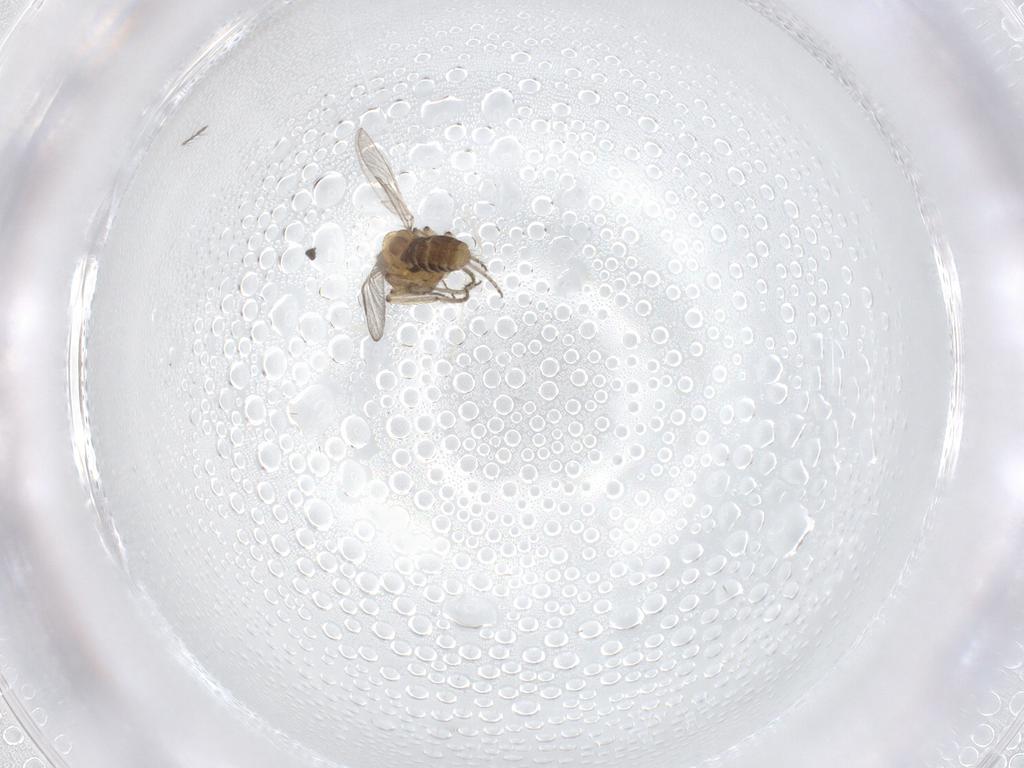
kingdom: Animalia
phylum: Arthropoda
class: Insecta
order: Diptera
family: Ceratopogonidae
